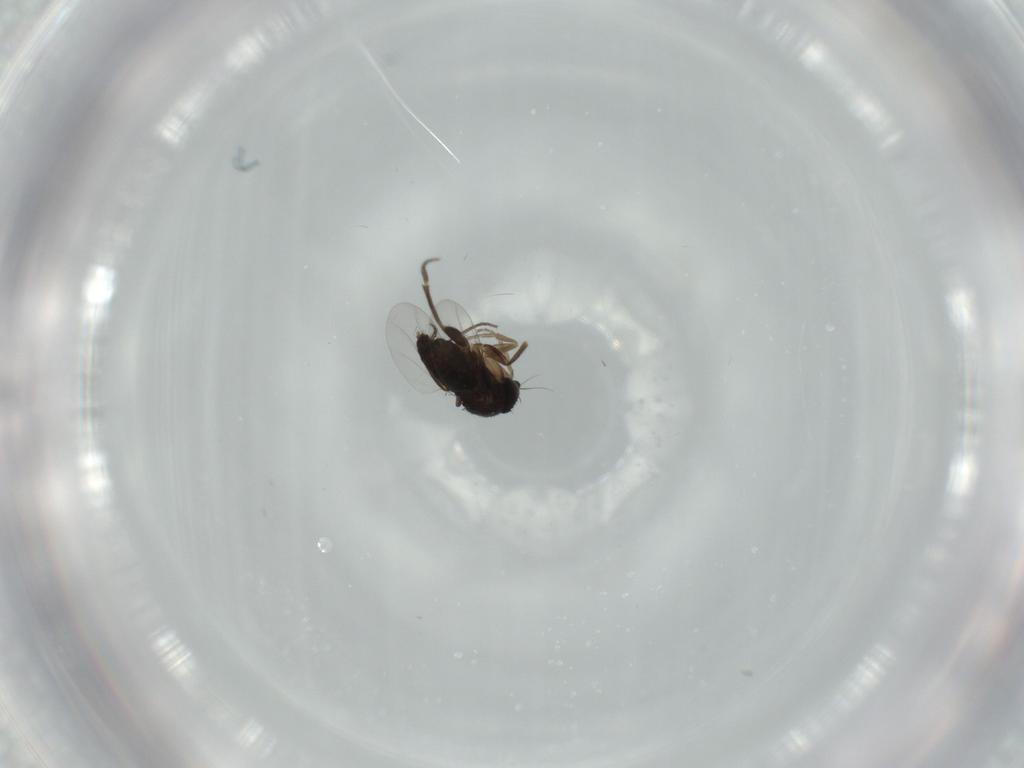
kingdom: Animalia
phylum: Arthropoda
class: Insecta
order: Diptera
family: Phoridae
